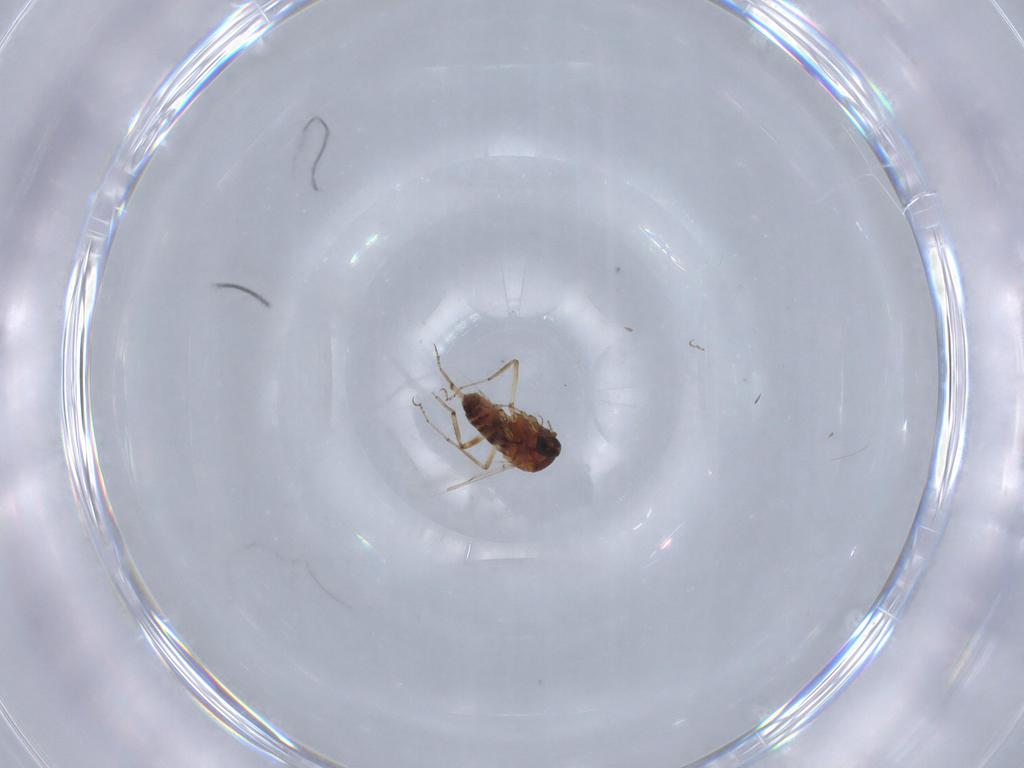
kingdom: Animalia
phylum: Arthropoda
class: Insecta
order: Diptera
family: Ceratopogonidae
